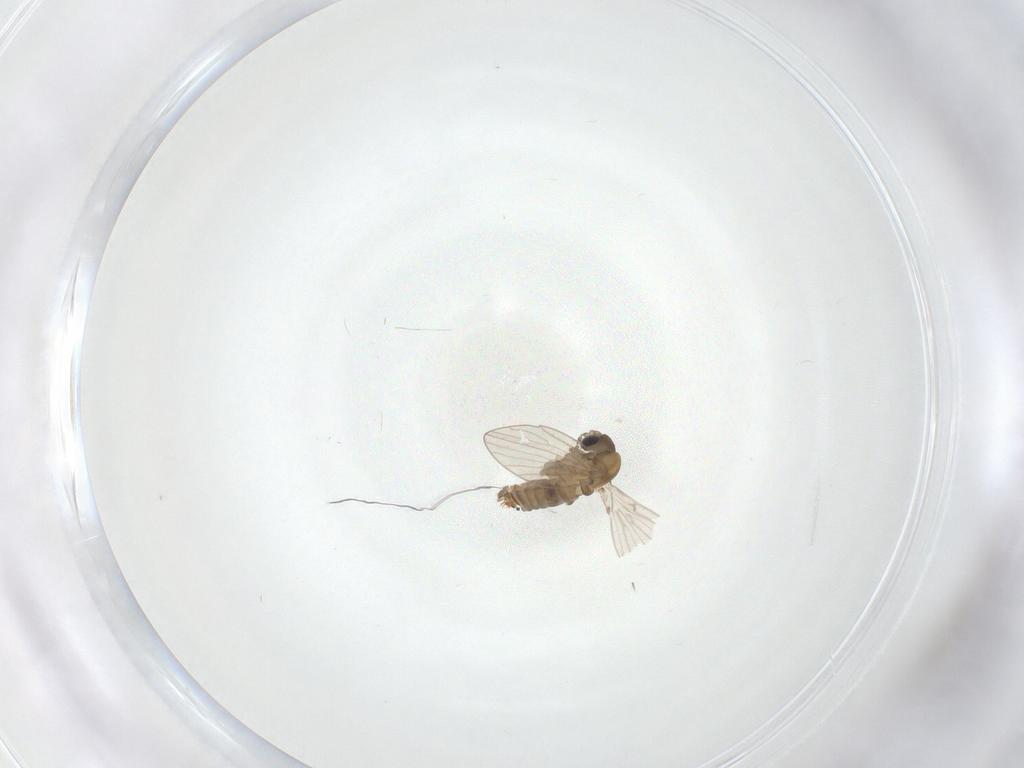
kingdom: Animalia
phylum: Arthropoda
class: Insecta
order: Diptera
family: Psychodidae
